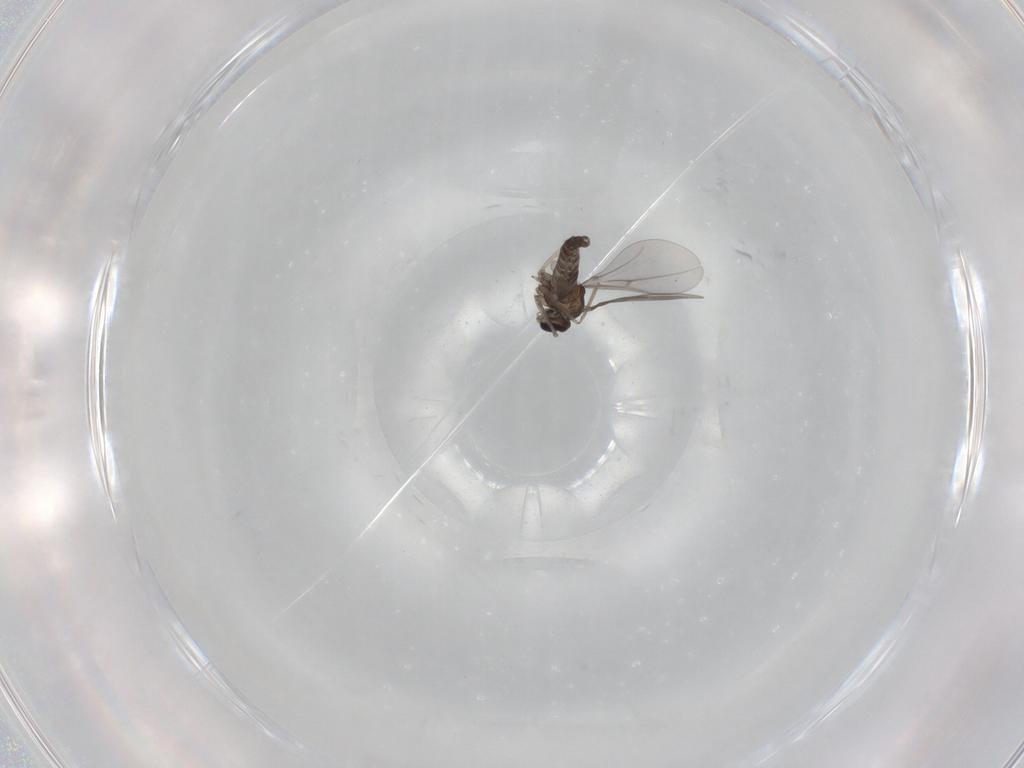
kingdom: Animalia
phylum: Arthropoda
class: Insecta
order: Diptera
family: Cecidomyiidae
